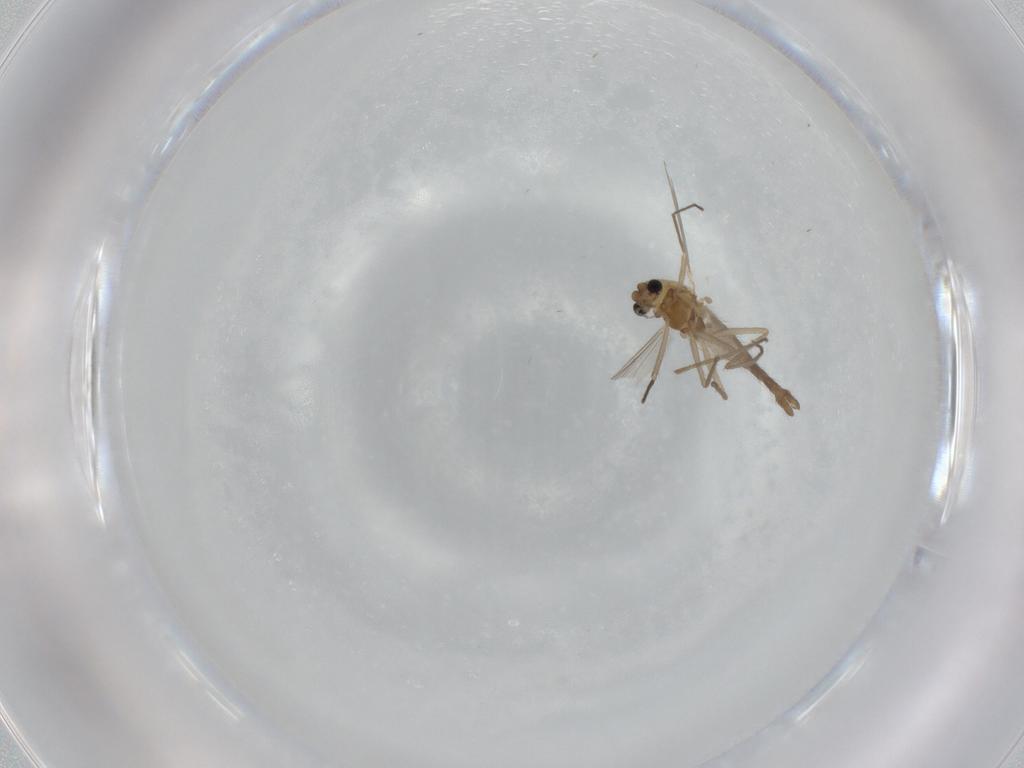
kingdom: Animalia
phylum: Arthropoda
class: Insecta
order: Diptera
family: Chironomidae
